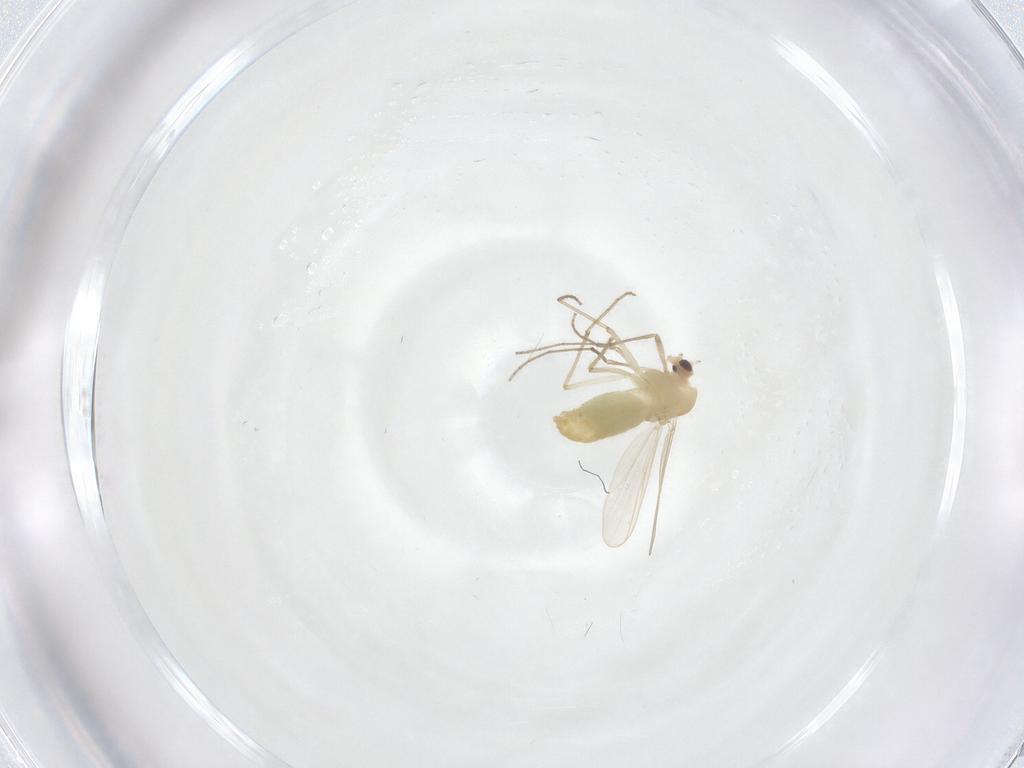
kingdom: Animalia
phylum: Arthropoda
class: Insecta
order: Diptera
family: Chironomidae
